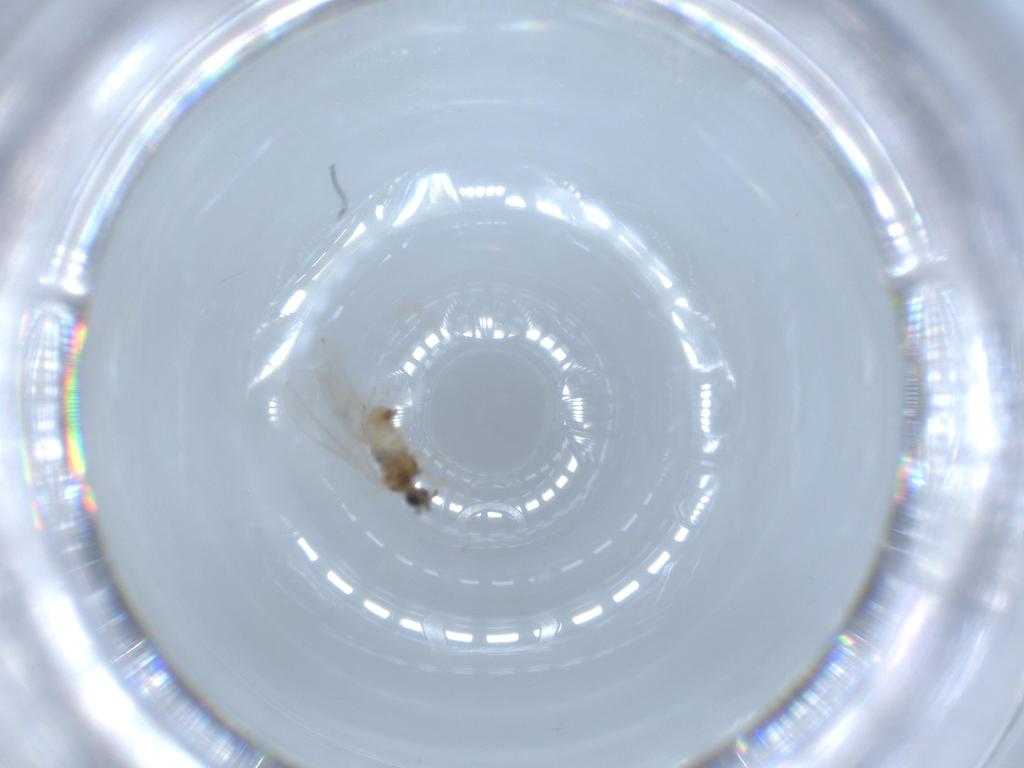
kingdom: Animalia
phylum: Arthropoda
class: Insecta
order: Diptera
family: Cecidomyiidae
